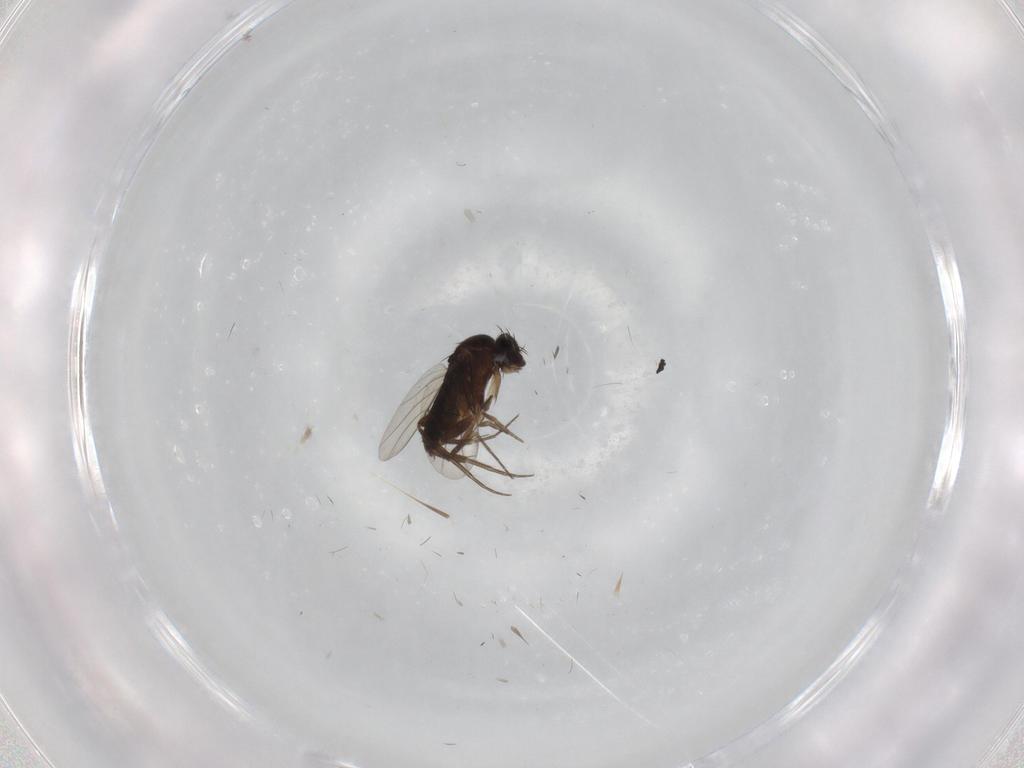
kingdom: Animalia
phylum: Arthropoda
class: Insecta
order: Diptera
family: Phoridae
